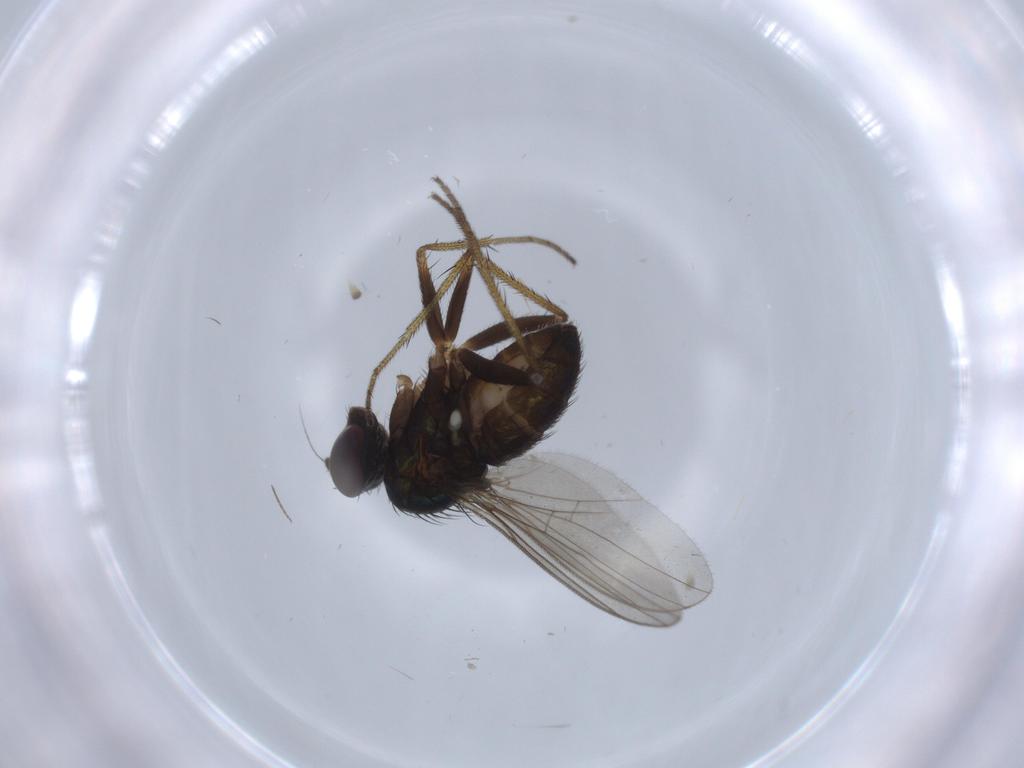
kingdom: Animalia
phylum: Arthropoda
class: Insecta
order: Diptera
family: Limoniidae
